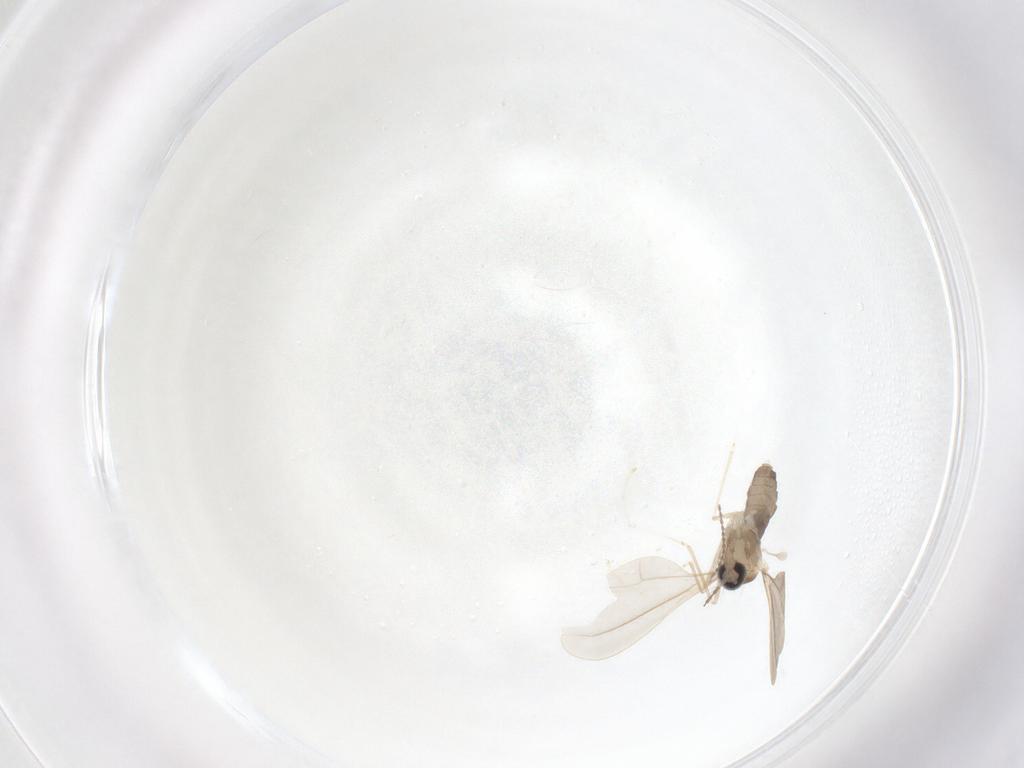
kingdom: Animalia
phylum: Arthropoda
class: Insecta
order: Diptera
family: Cecidomyiidae
